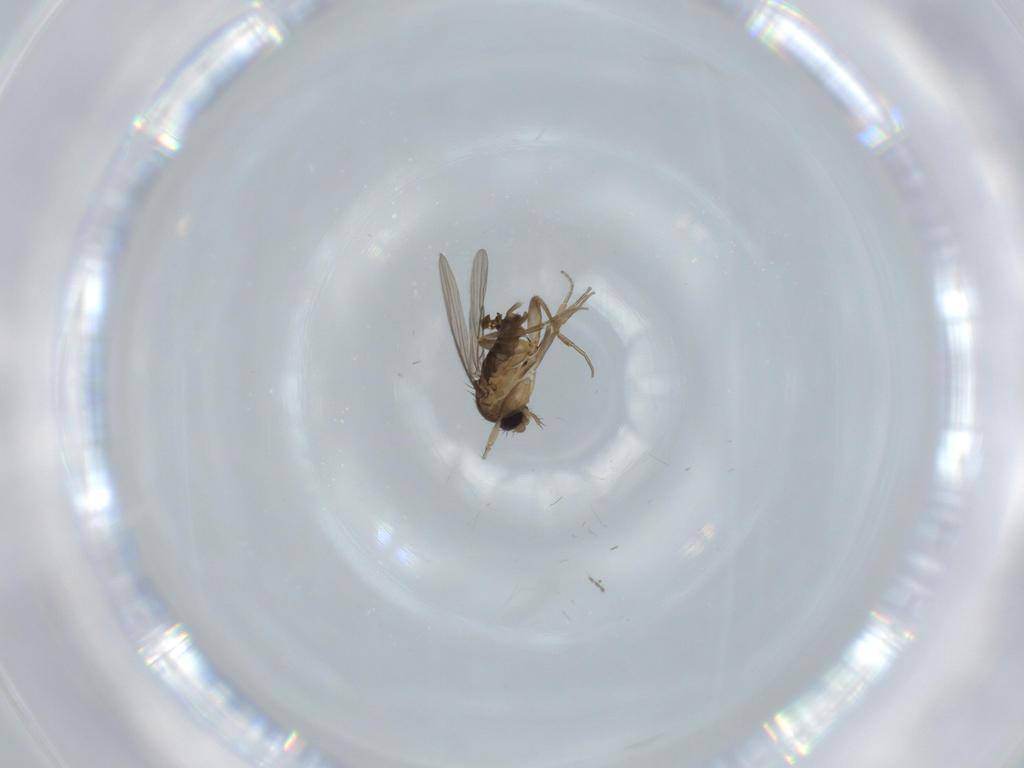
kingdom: Animalia
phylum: Arthropoda
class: Insecta
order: Diptera
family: Phoridae
